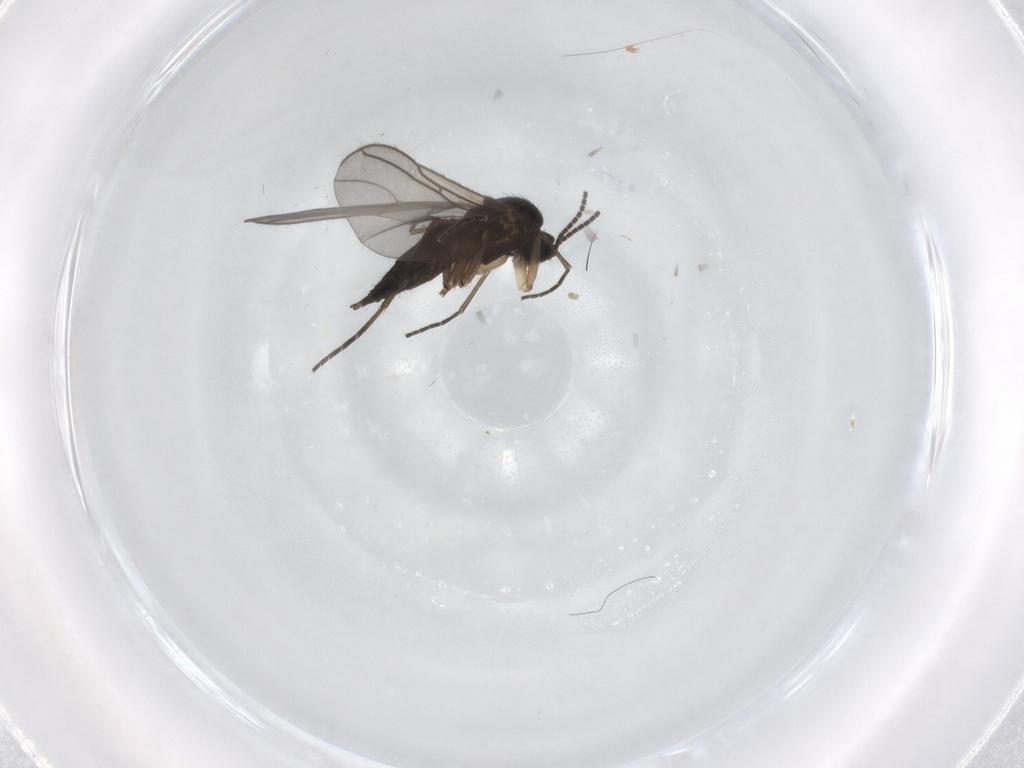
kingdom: Animalia
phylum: Arthropoda
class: Insecta
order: Diptera
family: Sciaridae
